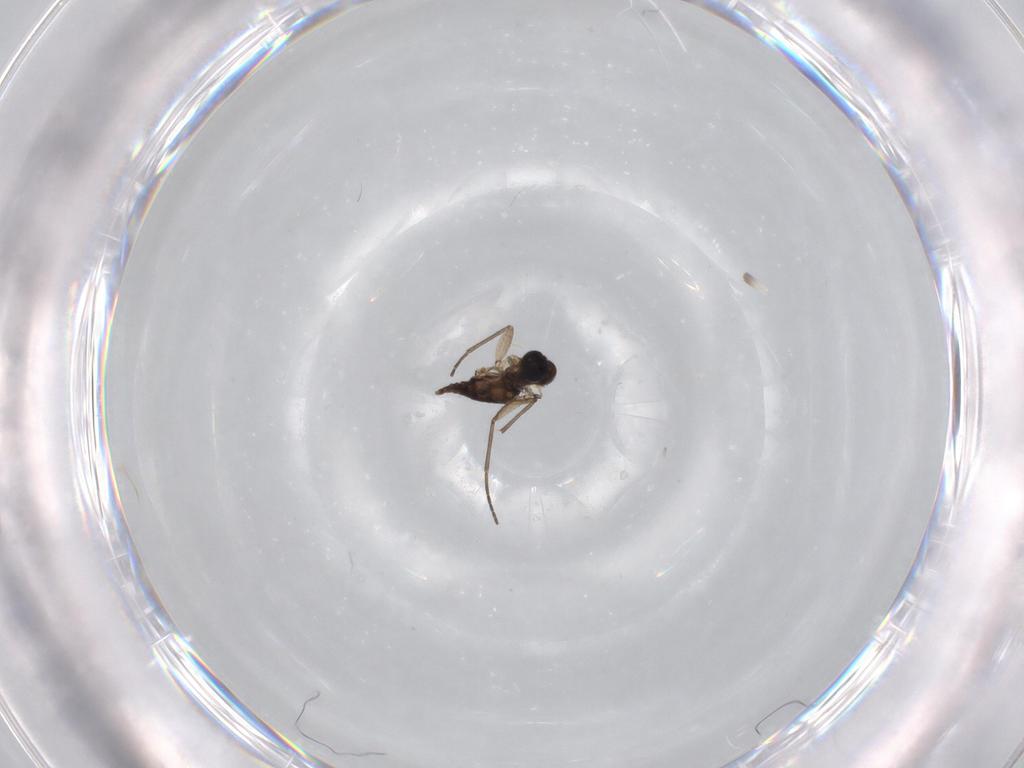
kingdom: Animalia
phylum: Arthropoda
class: Insecta
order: Diptera
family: Sciaridae
